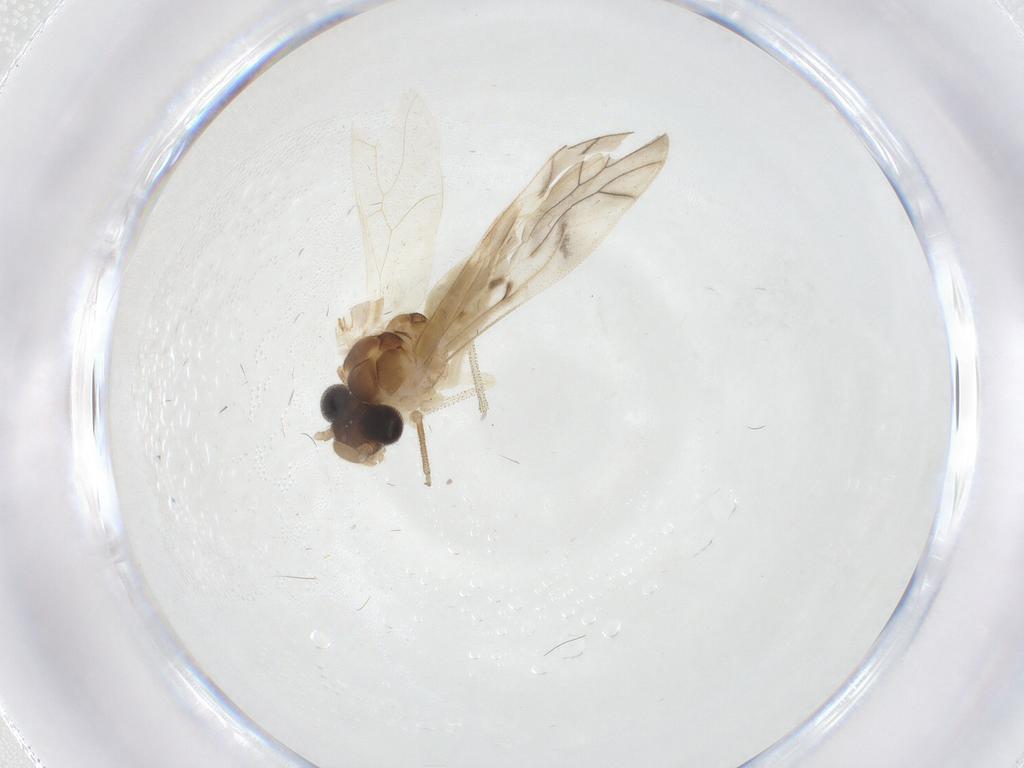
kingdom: Animalia
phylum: Arthropoda
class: Insecta
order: Psocodea
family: Caeciliusidae
